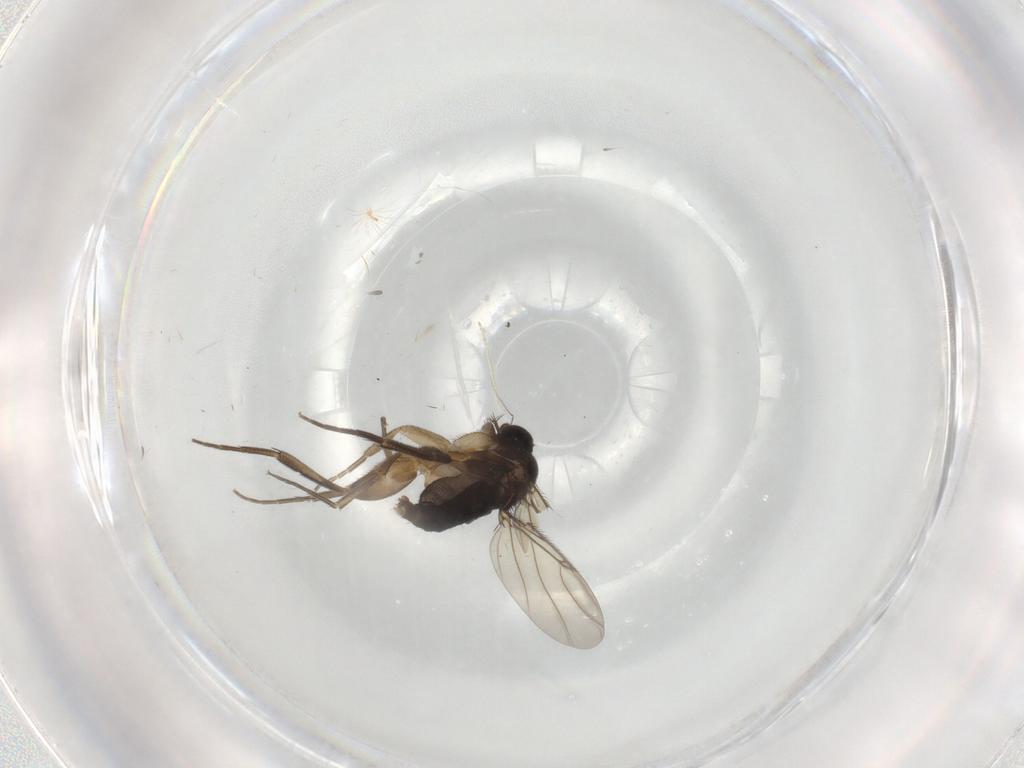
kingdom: Animalia
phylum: Arthropoda
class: Insecta
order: Diptera
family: Phoridae
